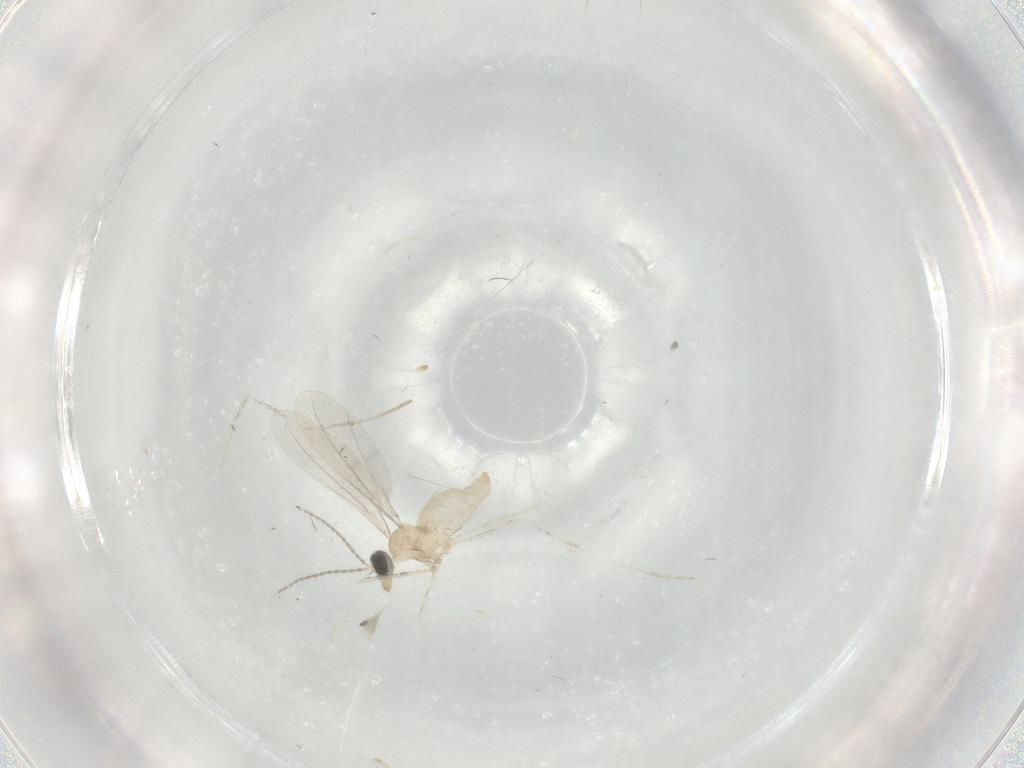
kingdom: Animalia
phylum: Arthropoda
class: Insecta
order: Diptera
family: Cecidomyiidae
